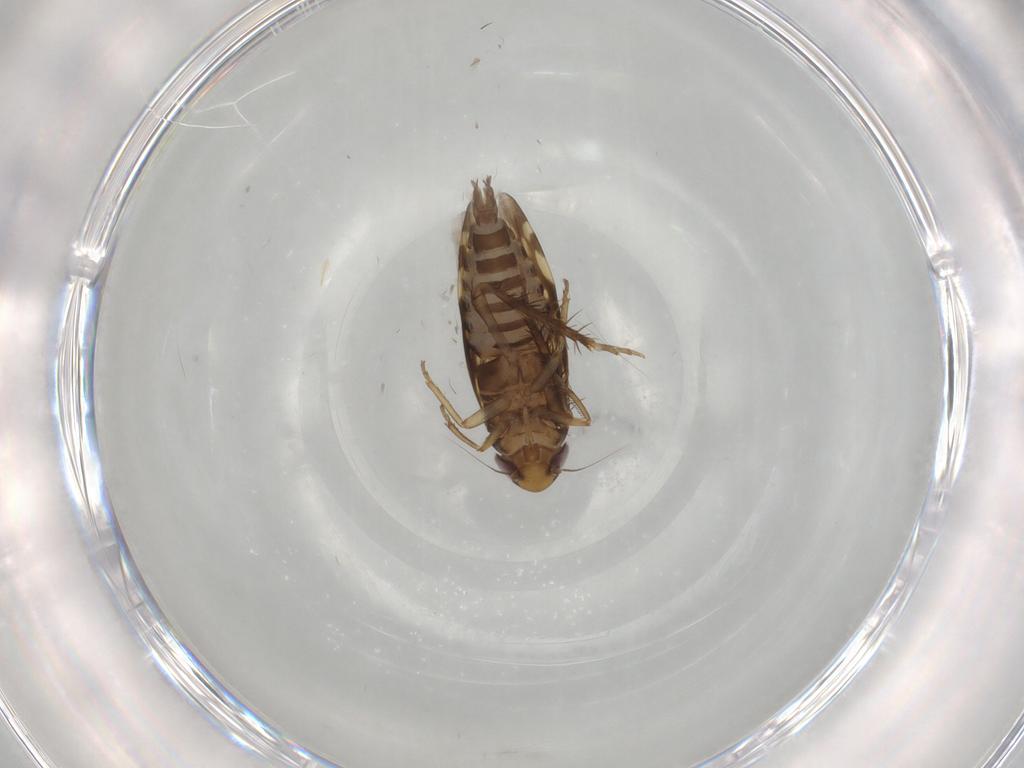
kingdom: Animalia
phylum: Arthropoda
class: Insecta
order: Hemiptera
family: Cicadellidae
